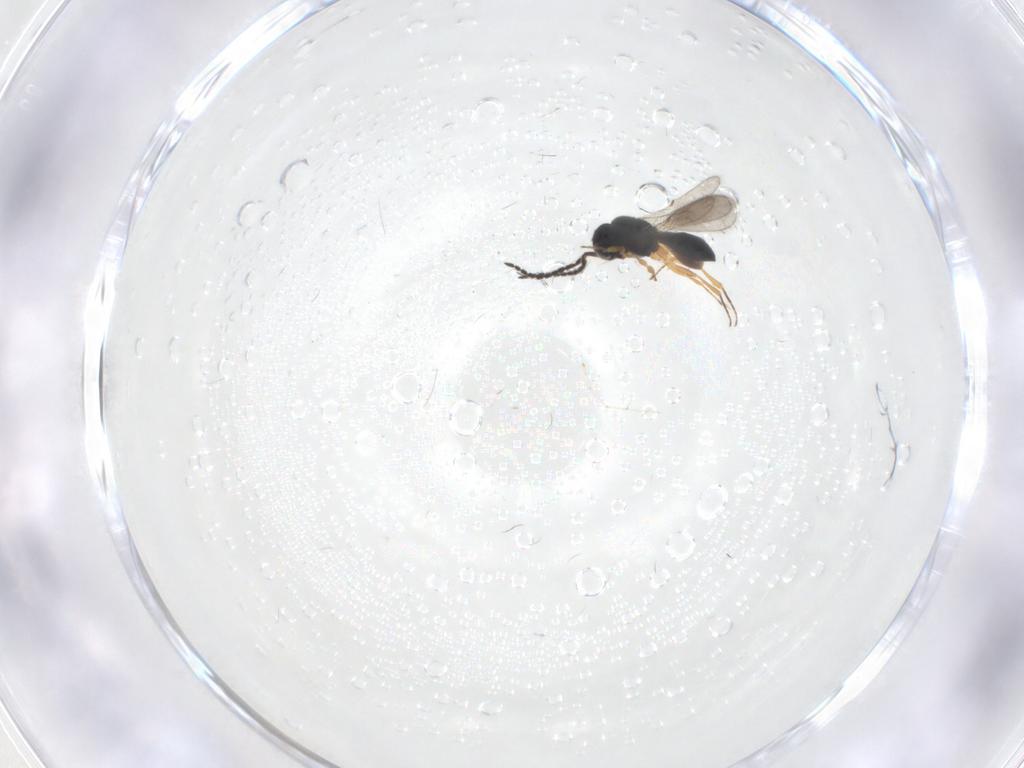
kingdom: Animalia
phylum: Arthropoda
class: Insecta
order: Hymenoptera
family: Scelionidae
